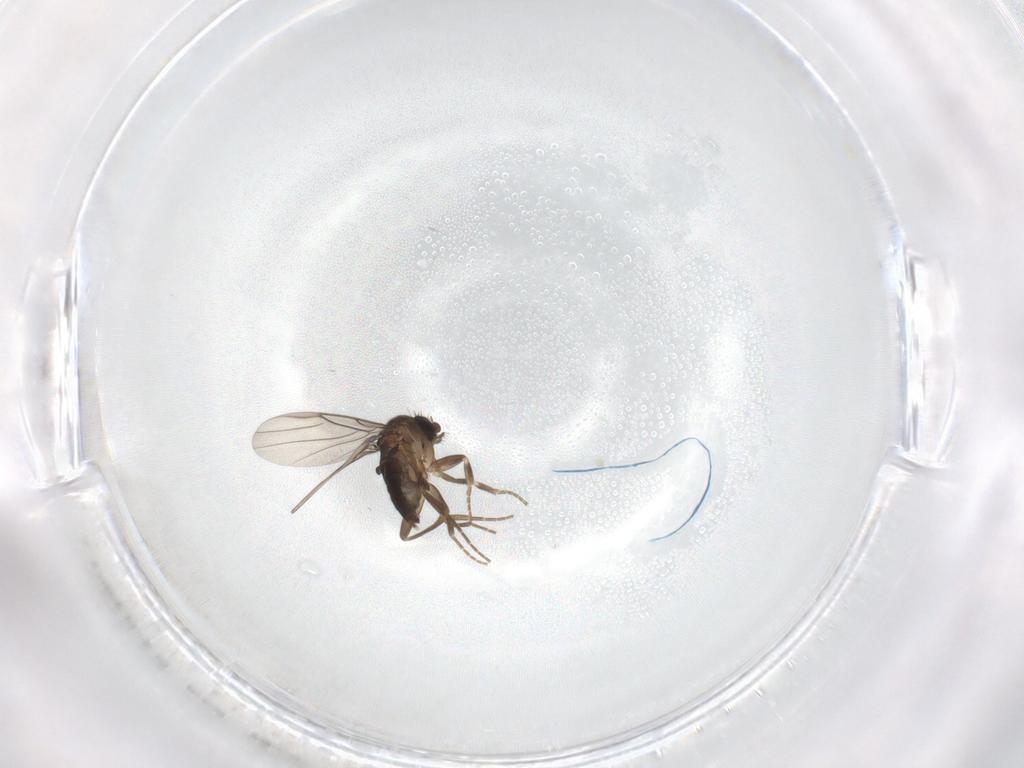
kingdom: Animalia
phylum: Arthropoda
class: Insecta
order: Diptera
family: Phoridae
